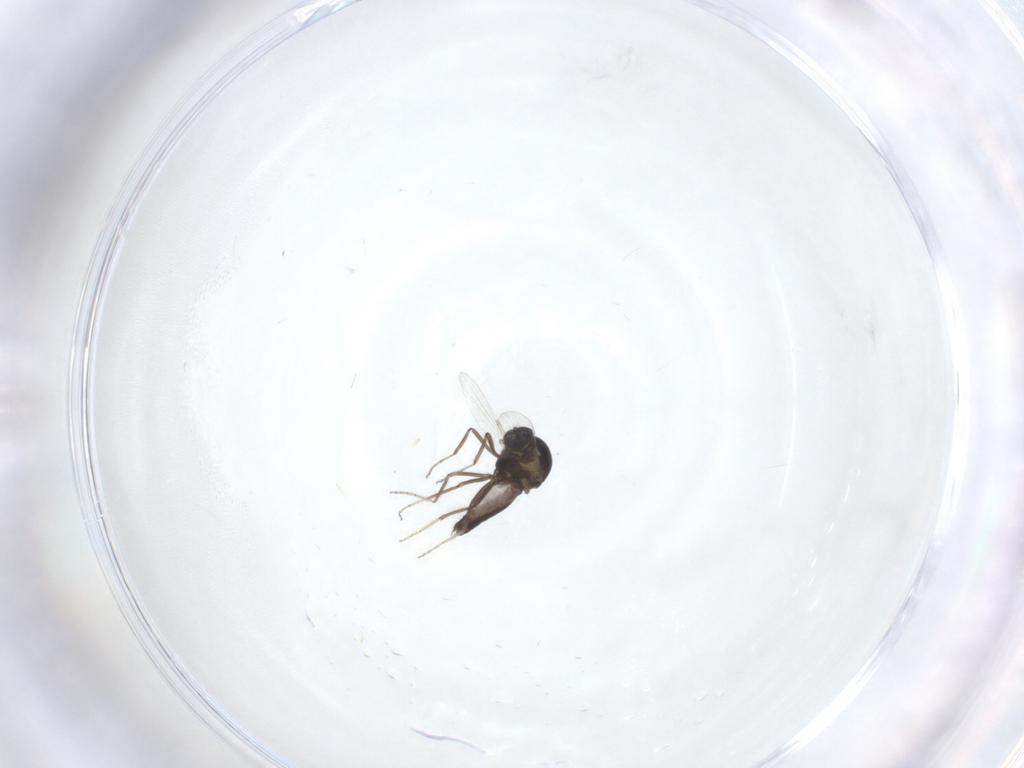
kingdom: Animalia
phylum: Arthropoda
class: Insecta
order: Diptera
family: Ceratopogonidae
